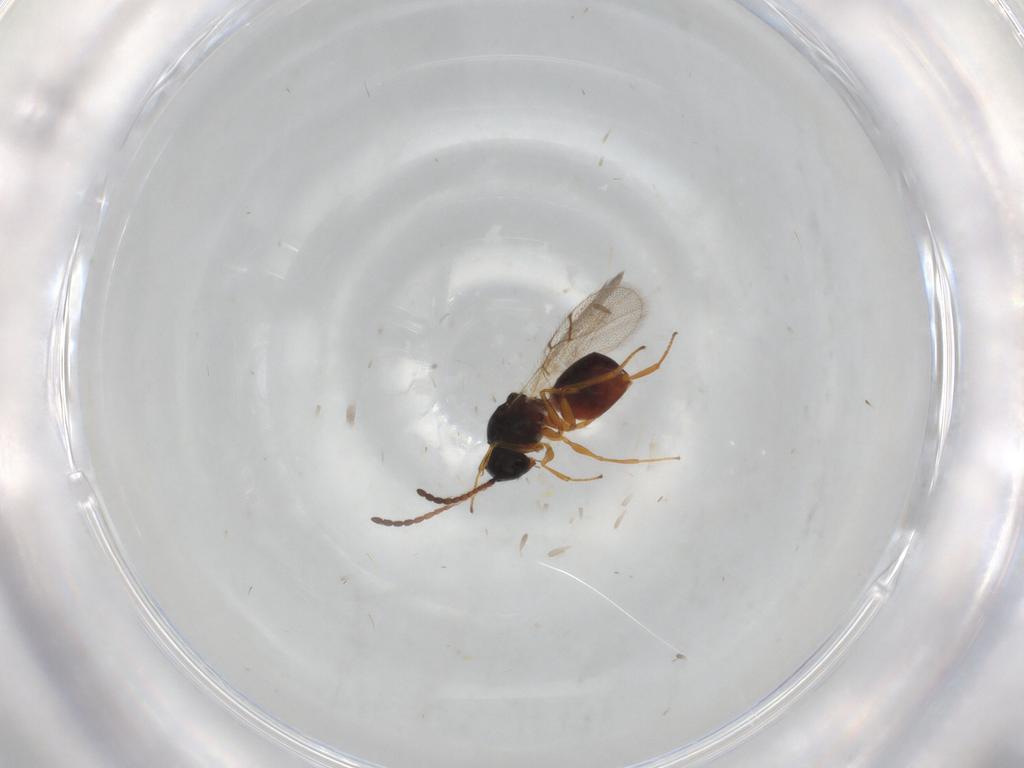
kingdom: Animalia
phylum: Arthropoda
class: Insecta
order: Hymenoptera
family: Figitidae
